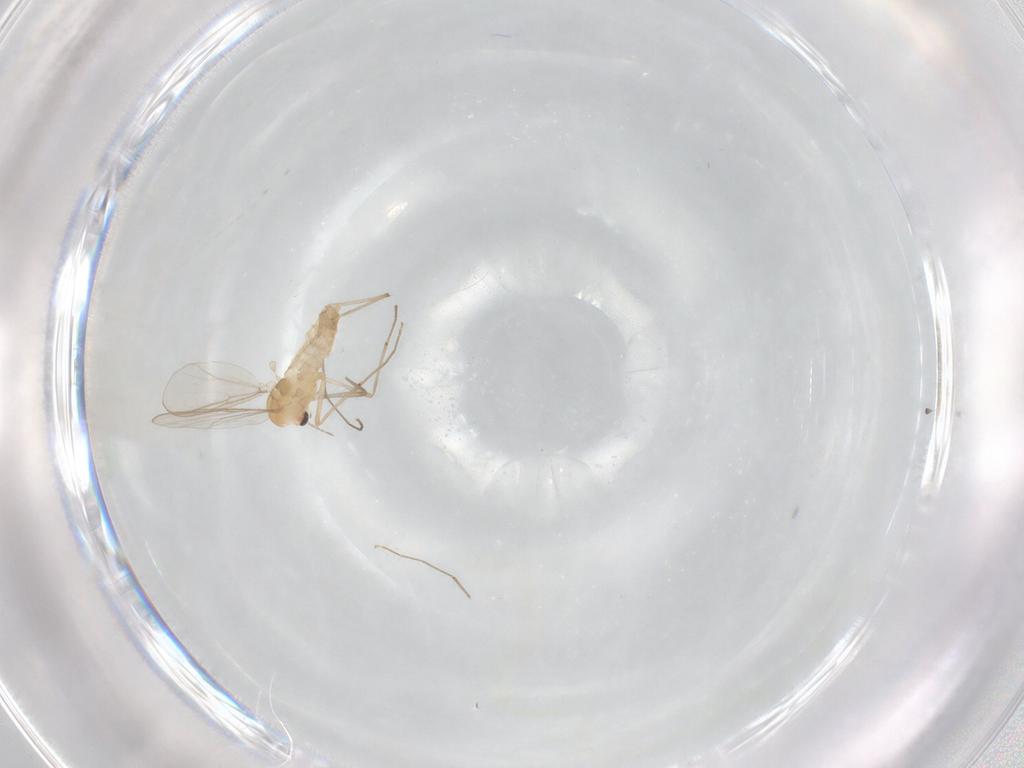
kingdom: Animalia
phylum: Arthropoda
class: Insecta
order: Diptera
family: Chironomidae
